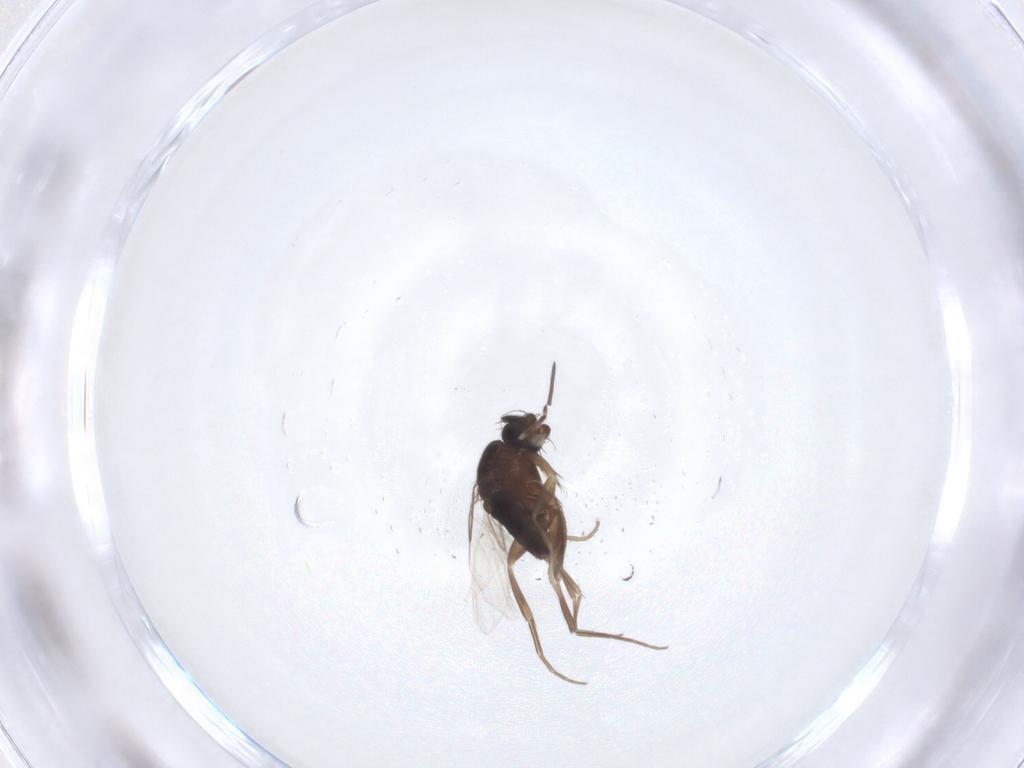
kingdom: Animalia
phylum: Arthropoda
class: Insecta
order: Diptera
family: Phoridae
